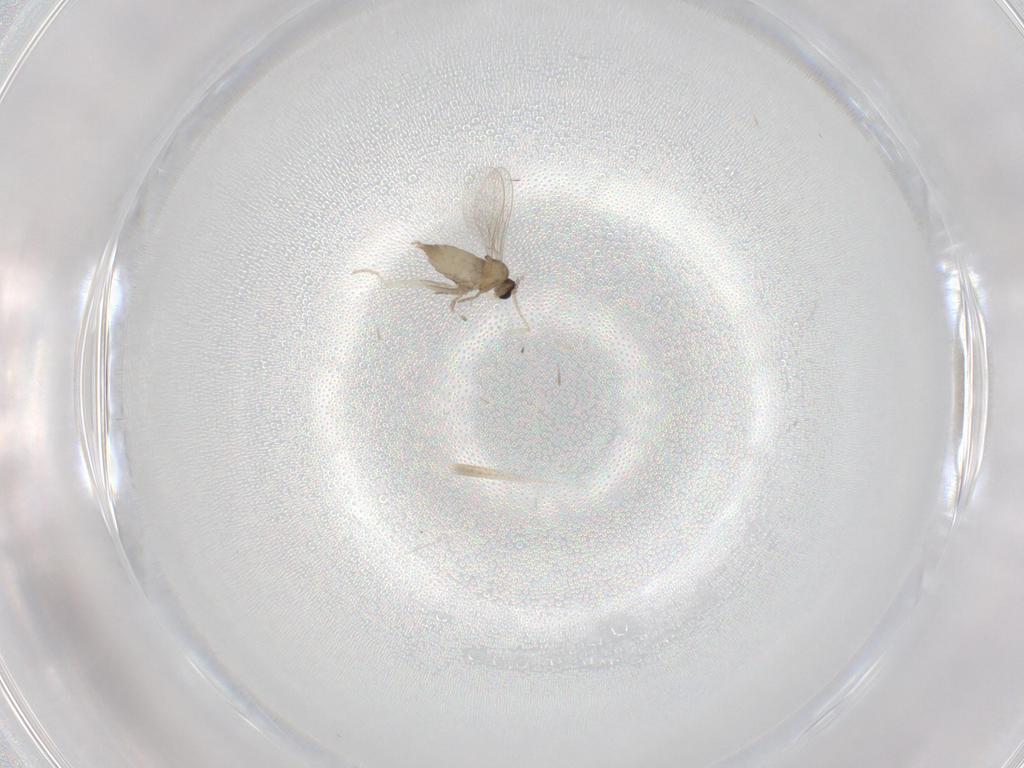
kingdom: Animalia
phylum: Arthropoda
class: Insecta
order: Diptera
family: Cecidomyiidae
